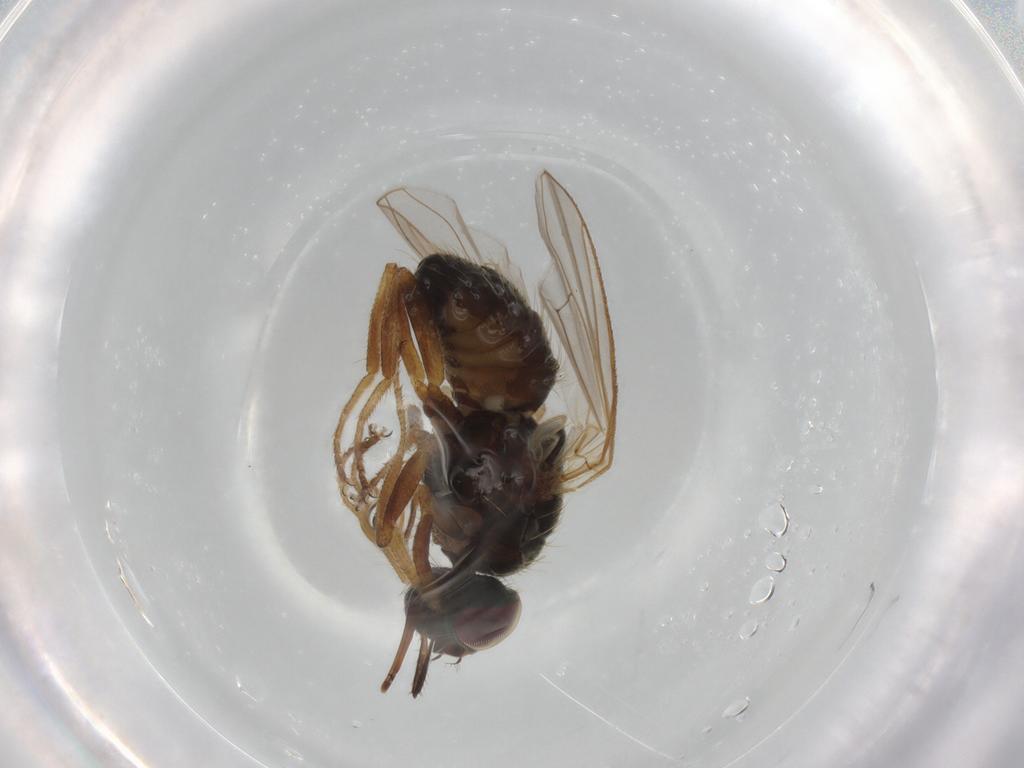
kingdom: Animalia
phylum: Arthropoda
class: Insecta
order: Diptera
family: Muscidae
